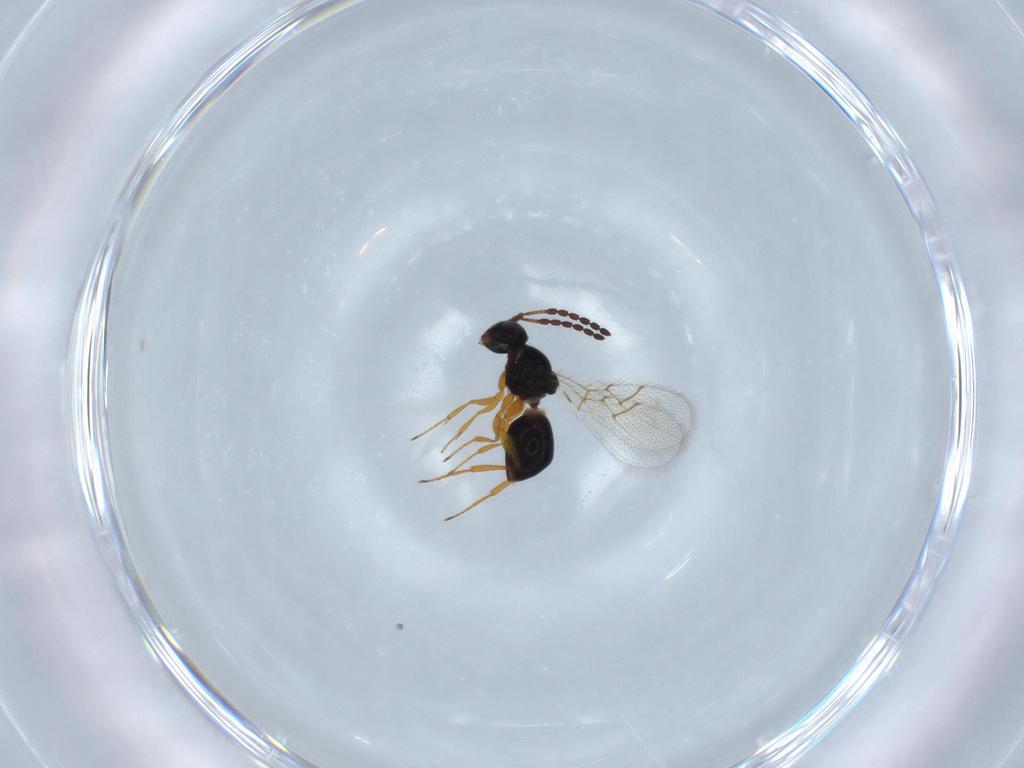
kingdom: Animalia
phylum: Arthropoda
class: Insecta
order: Hymenoptera
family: Figitidae
